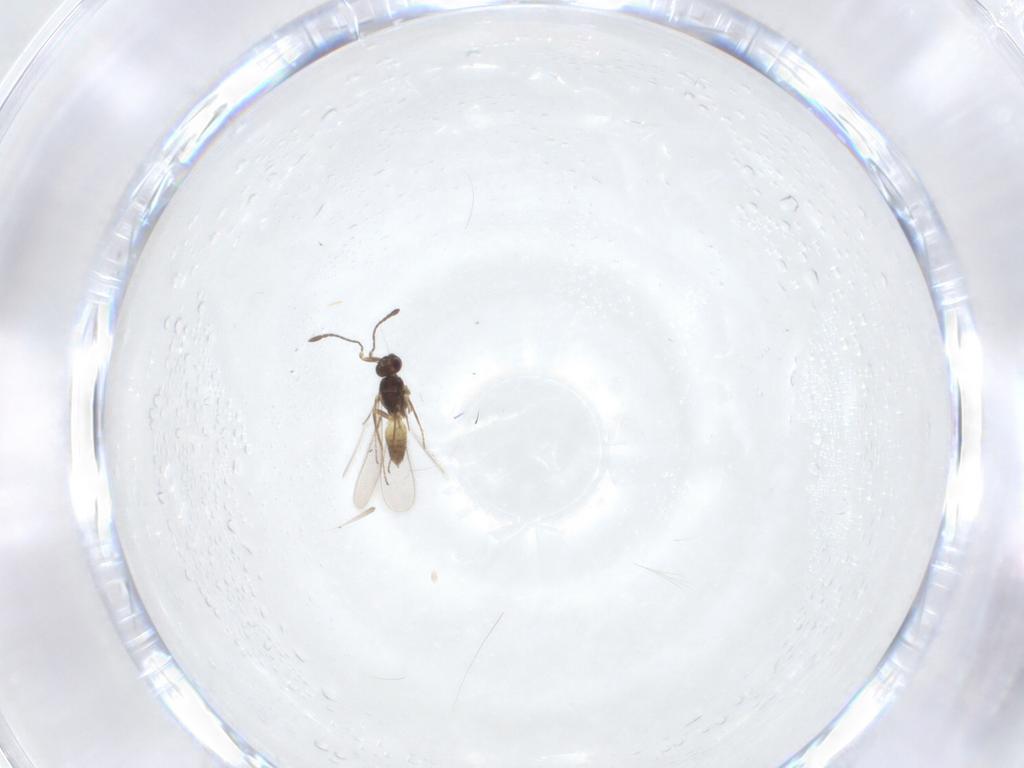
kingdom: Animalia
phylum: Arthropoda
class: Insecta
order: Hymenoptera
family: Mymaridae
